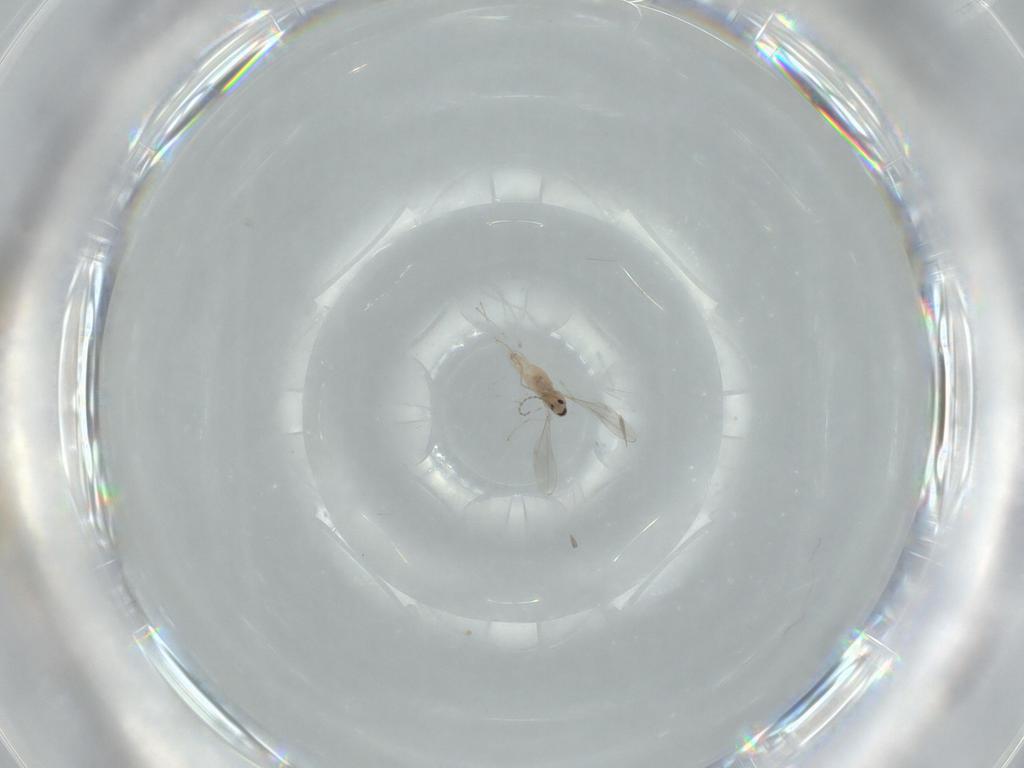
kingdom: Animalia
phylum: Arthropoda
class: Insecta
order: Diptera
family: Cecidomyiidae
